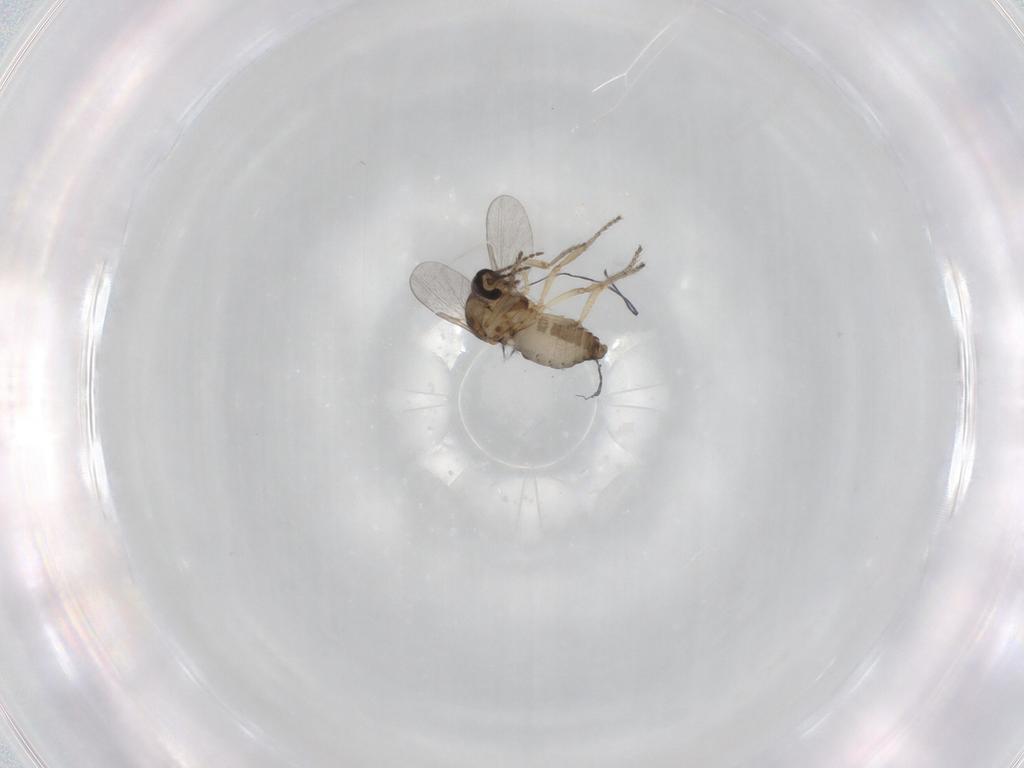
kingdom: Animalia
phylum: Arthropoda
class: Insecta
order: Diptera
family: Ceratopogonidae
